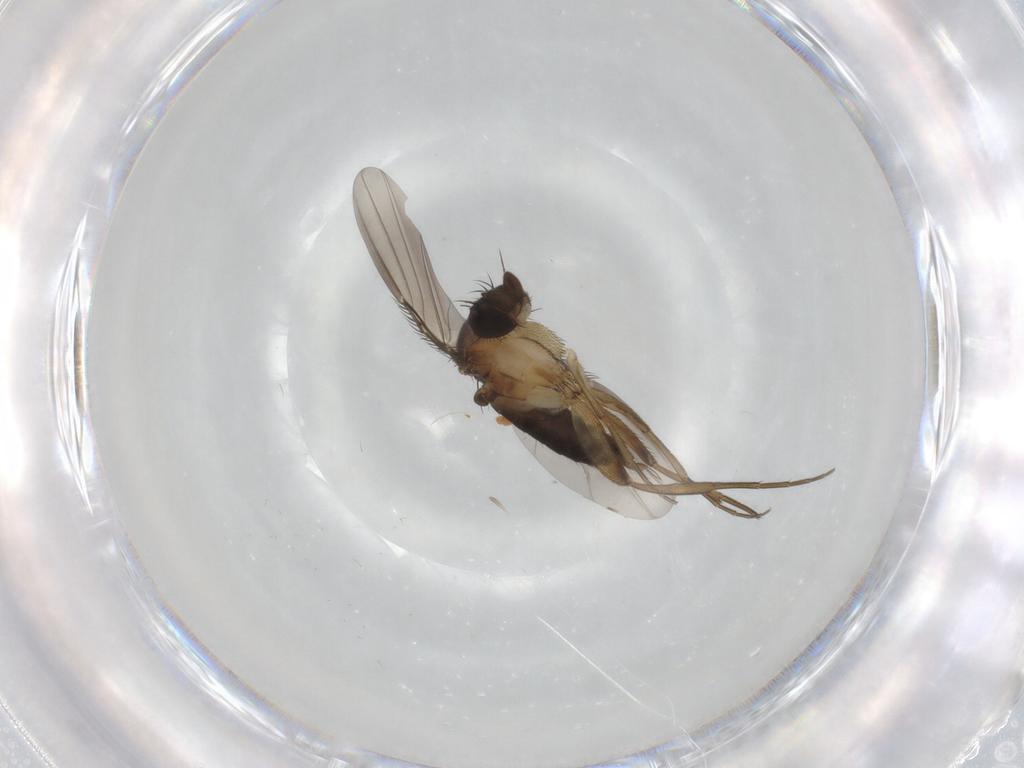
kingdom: Animalia
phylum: Arthropoda
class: Insecta
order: Diptera
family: Phoridae
